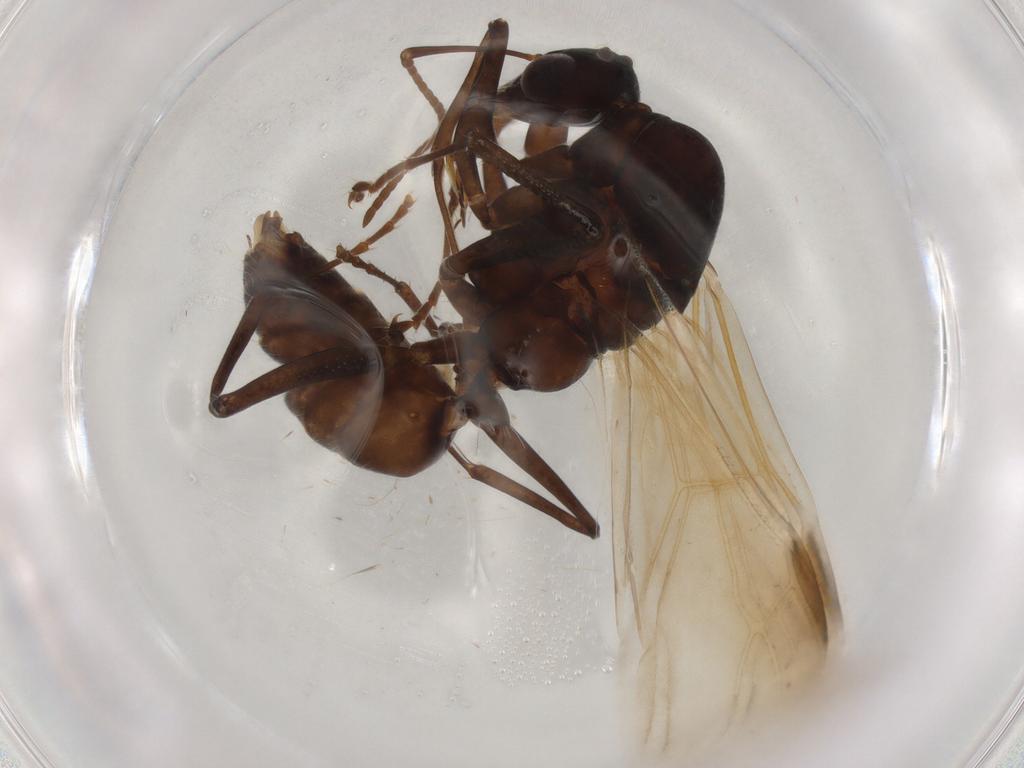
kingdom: Animalia
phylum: Arthropoda
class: Insecta
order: Hymenoptera
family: Formicidae
